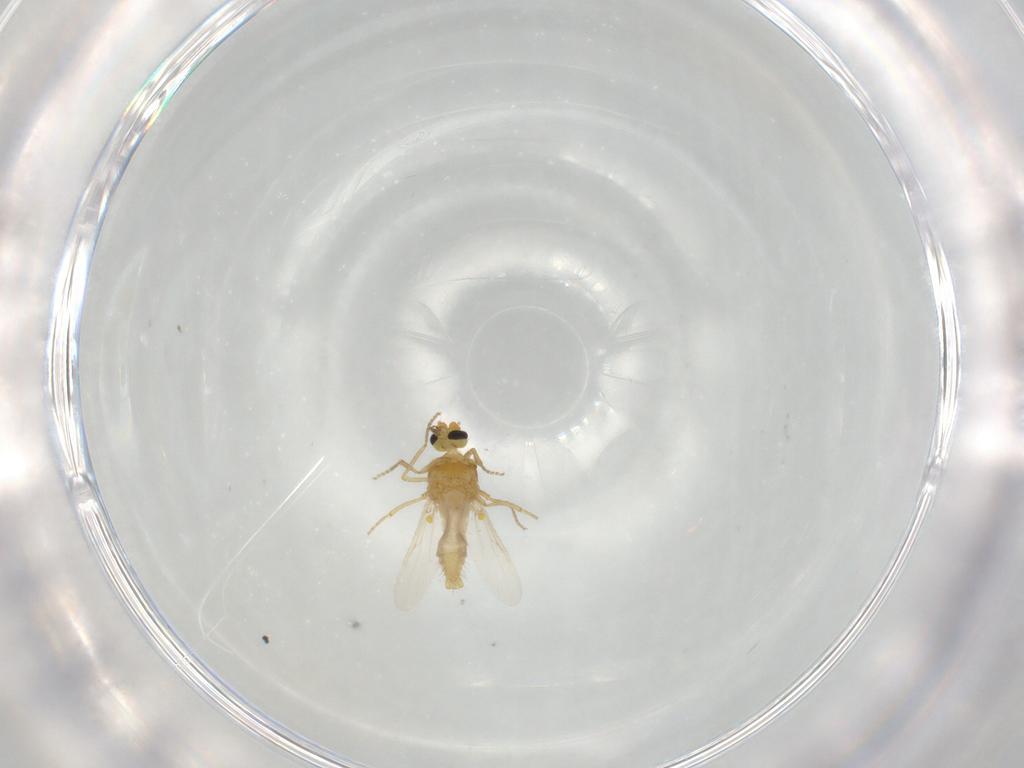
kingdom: Animalia
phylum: Arthropoda
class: Insecta
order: Diptera
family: Ceratopogonidae
